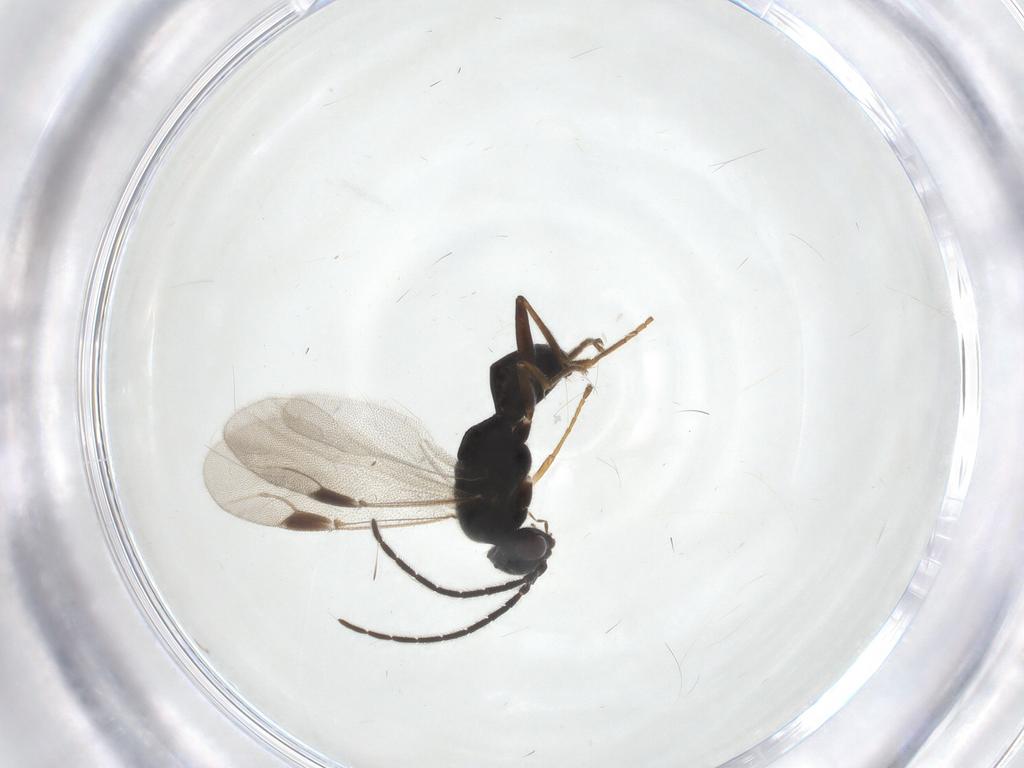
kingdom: Animalia
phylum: Arthropoda
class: Insecta
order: Hymenoptera
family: Dryinidae
